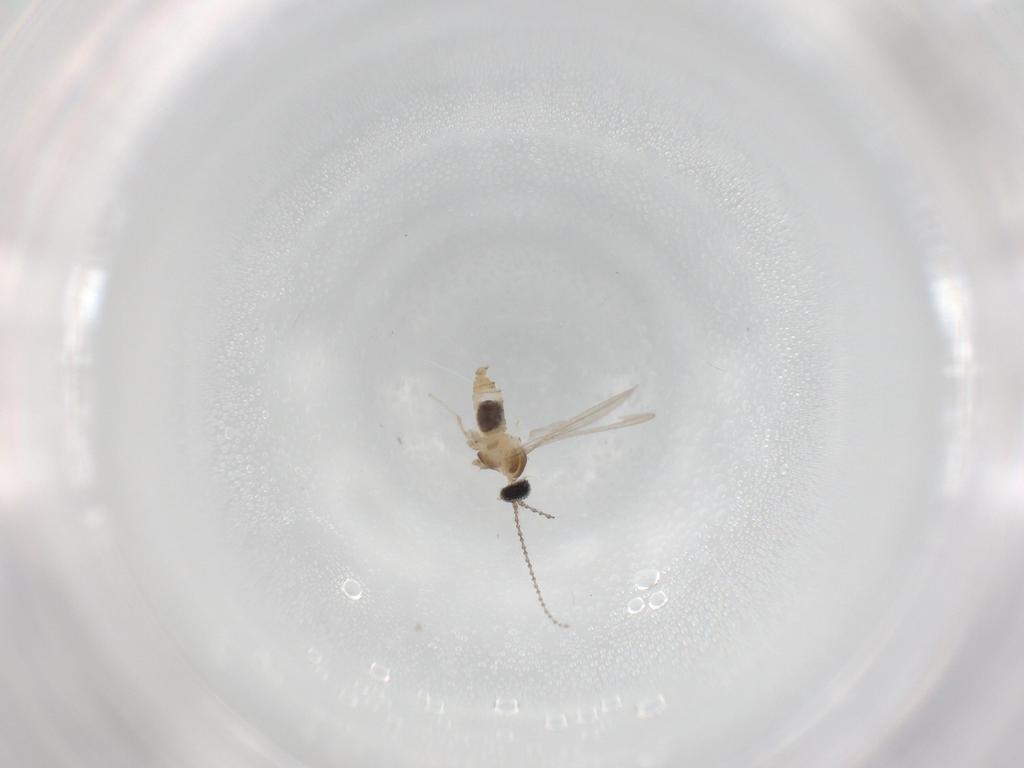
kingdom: Animalia
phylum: Arthropoda
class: Insecta
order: Diptera
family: Cecidomyiidae
